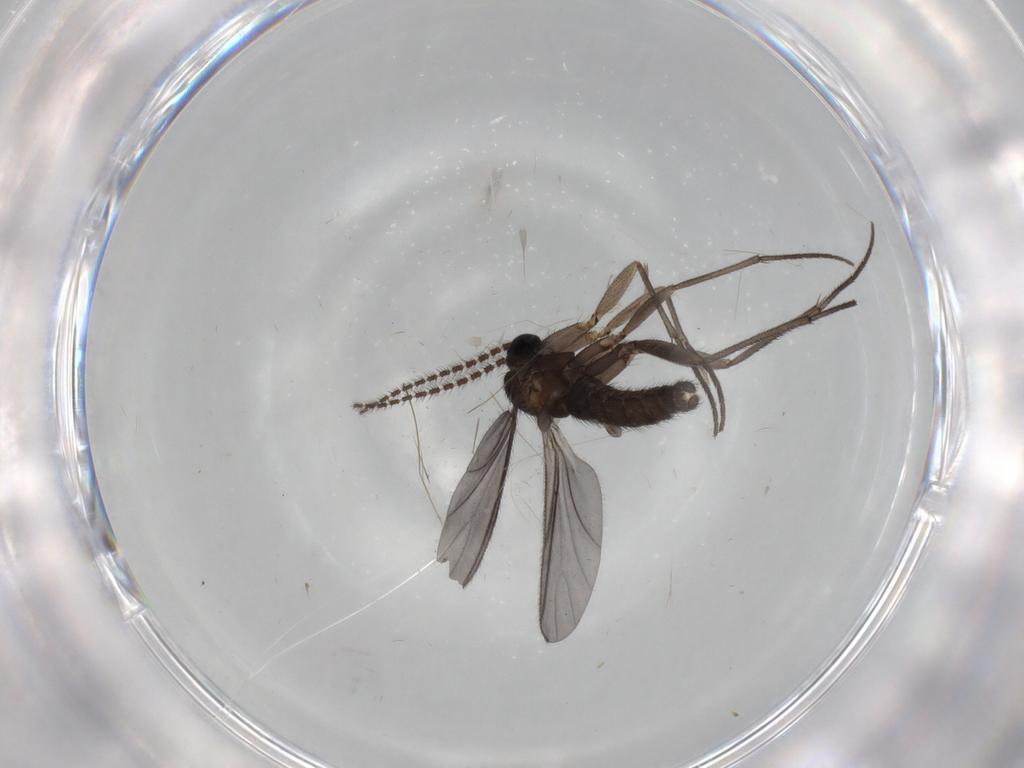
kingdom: Animalia
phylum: Arthropoda
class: Insecta
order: Diptera
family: Sciaridae
